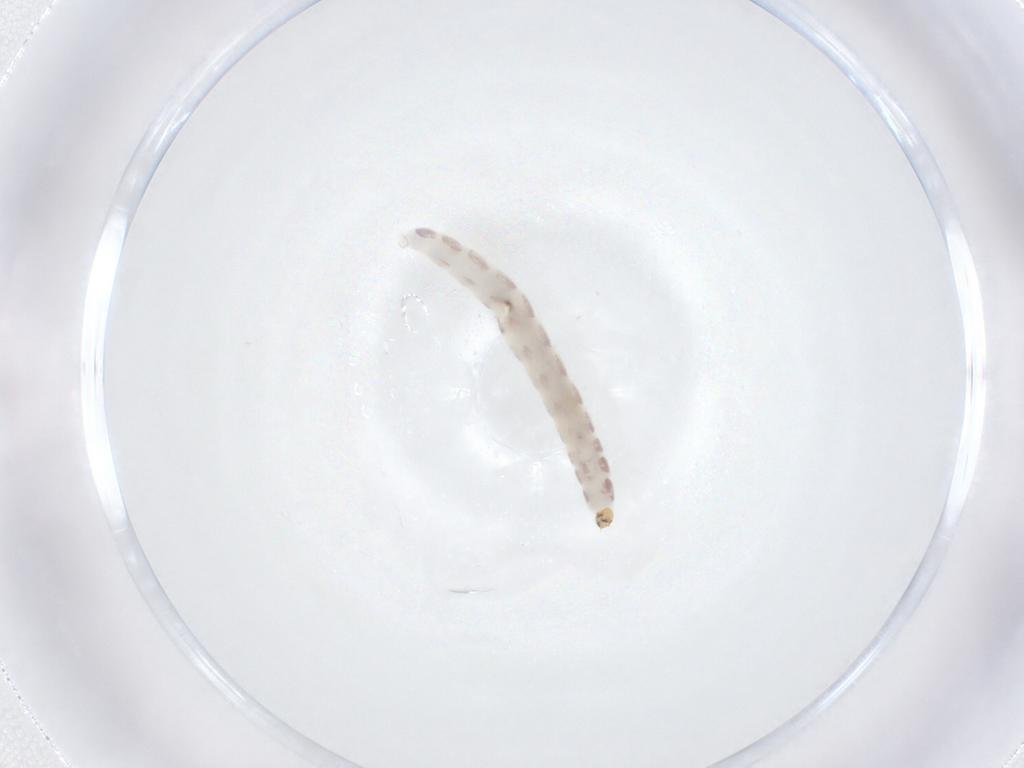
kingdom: Animalia
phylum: Arthropoda
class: Insecta
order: Diptera
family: Chironomidae
